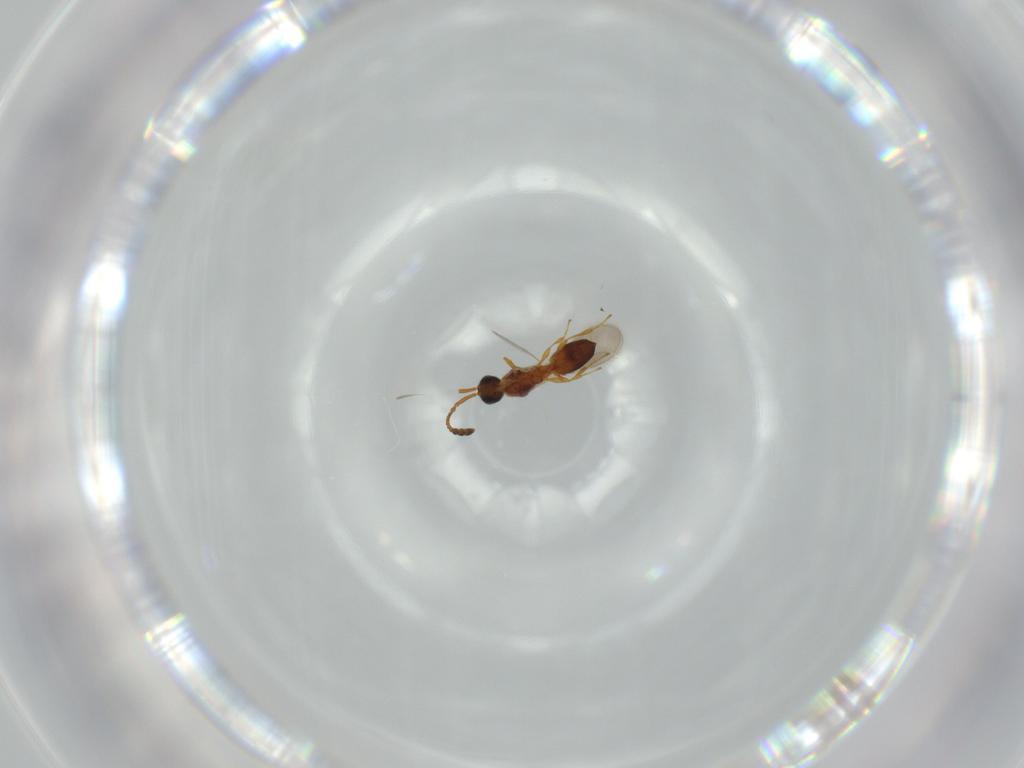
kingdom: Animalia
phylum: Arthropoda
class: Insecta
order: Hymenoptera
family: Diapriidae
